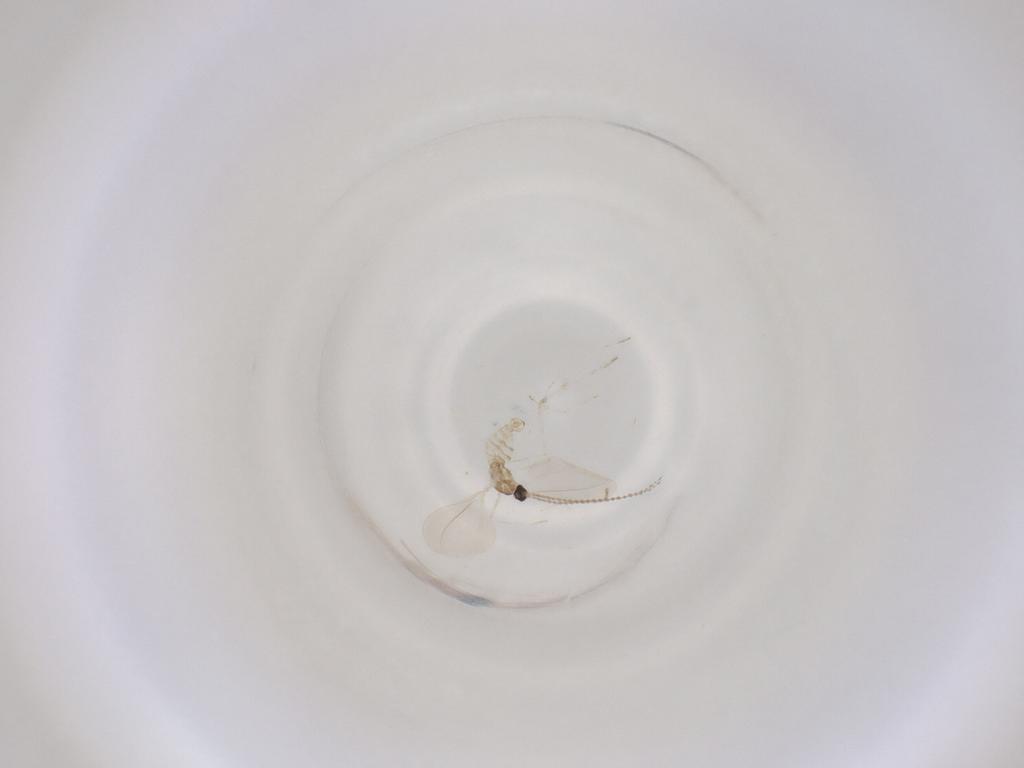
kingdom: Animalia
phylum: Arthropoda
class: Insecta
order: Diptera
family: Cecidomyiidae
